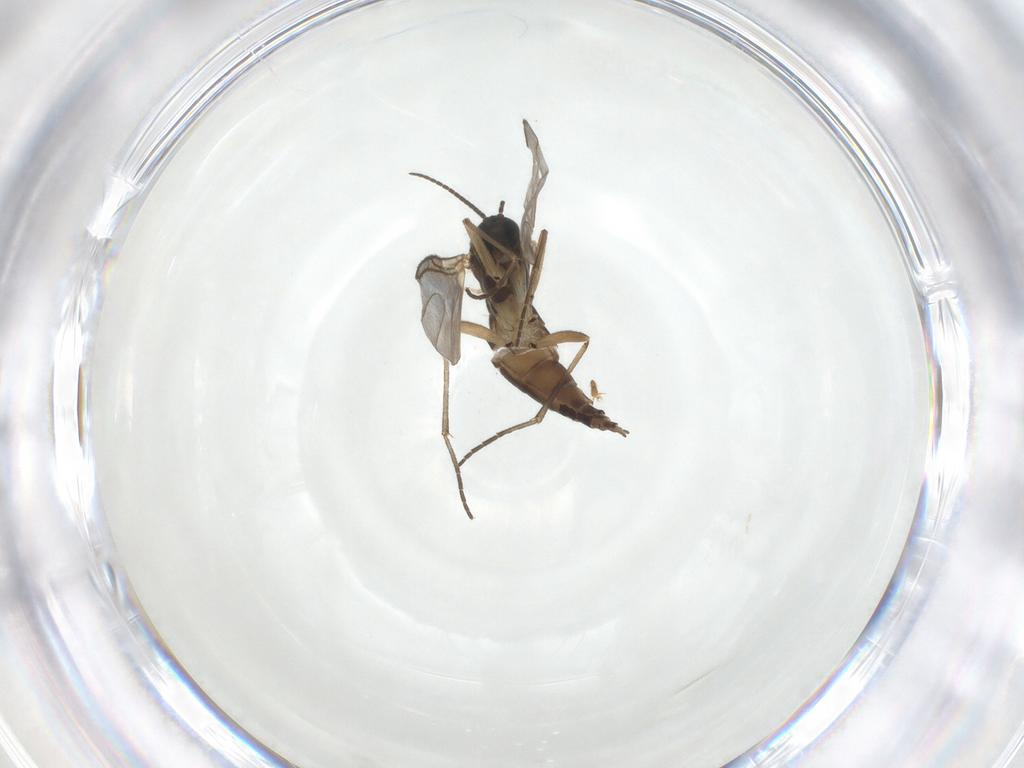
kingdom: Animalia
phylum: Arthropoda
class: Insecta
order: Diptera
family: Sciaridae
